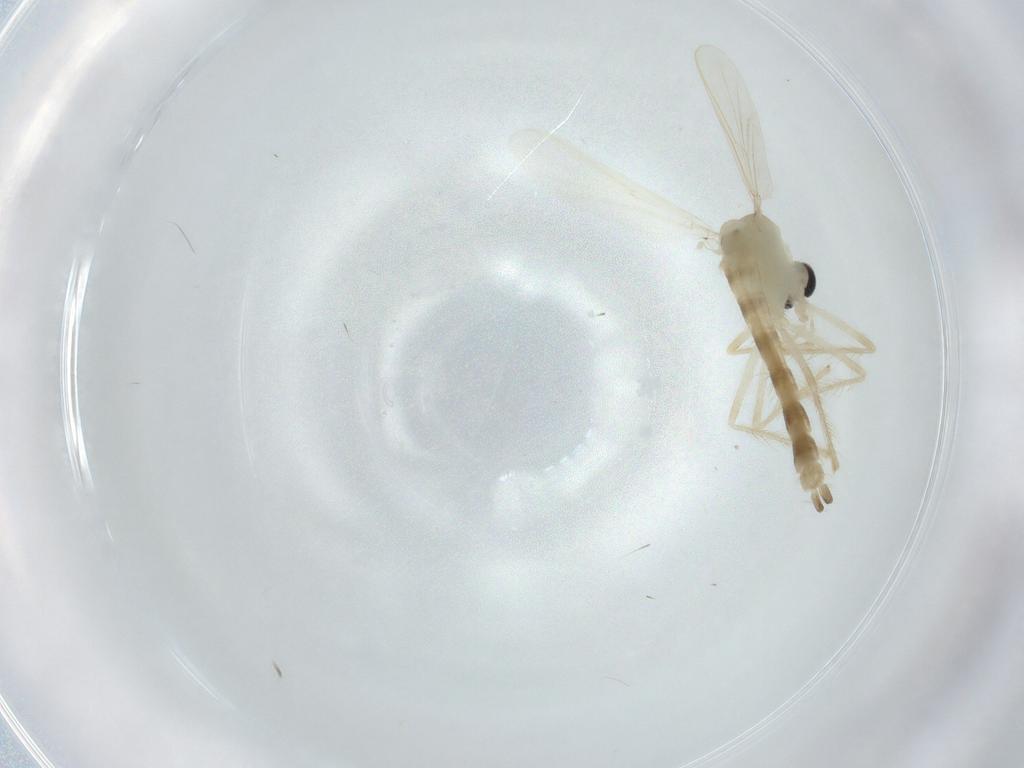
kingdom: Animalia
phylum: Arthropoda
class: Insecta
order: Diptera
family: Chironomidae
